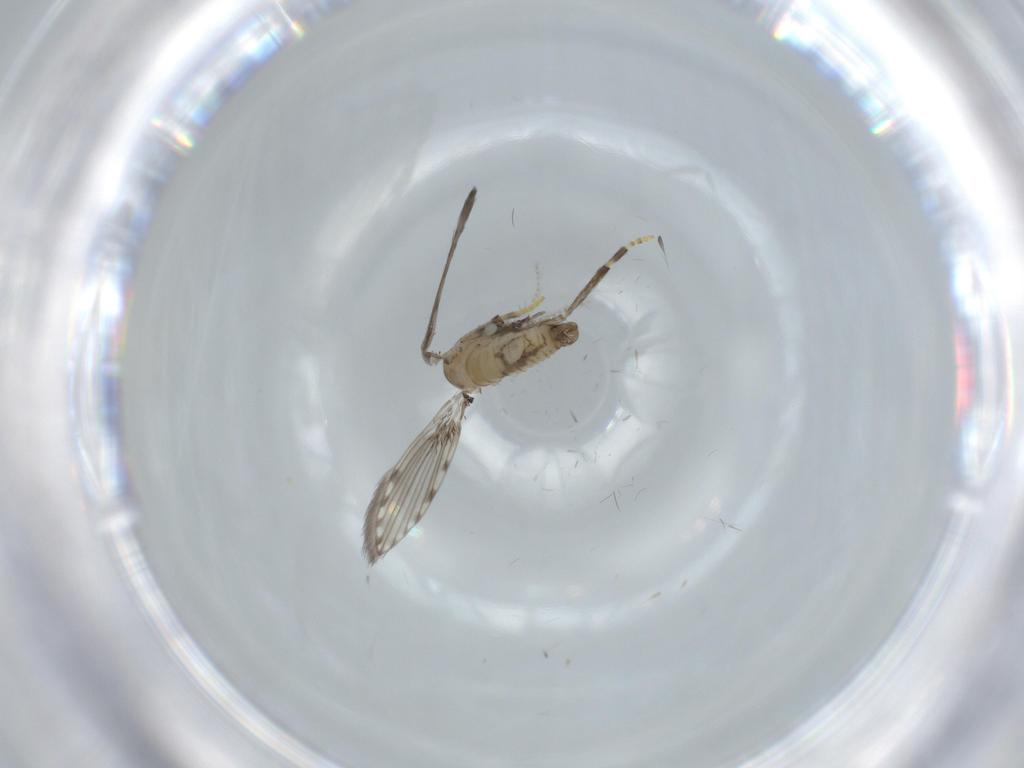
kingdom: Animalia
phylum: Arthropoda
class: Insecta
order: Diptera
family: Psychodidae
